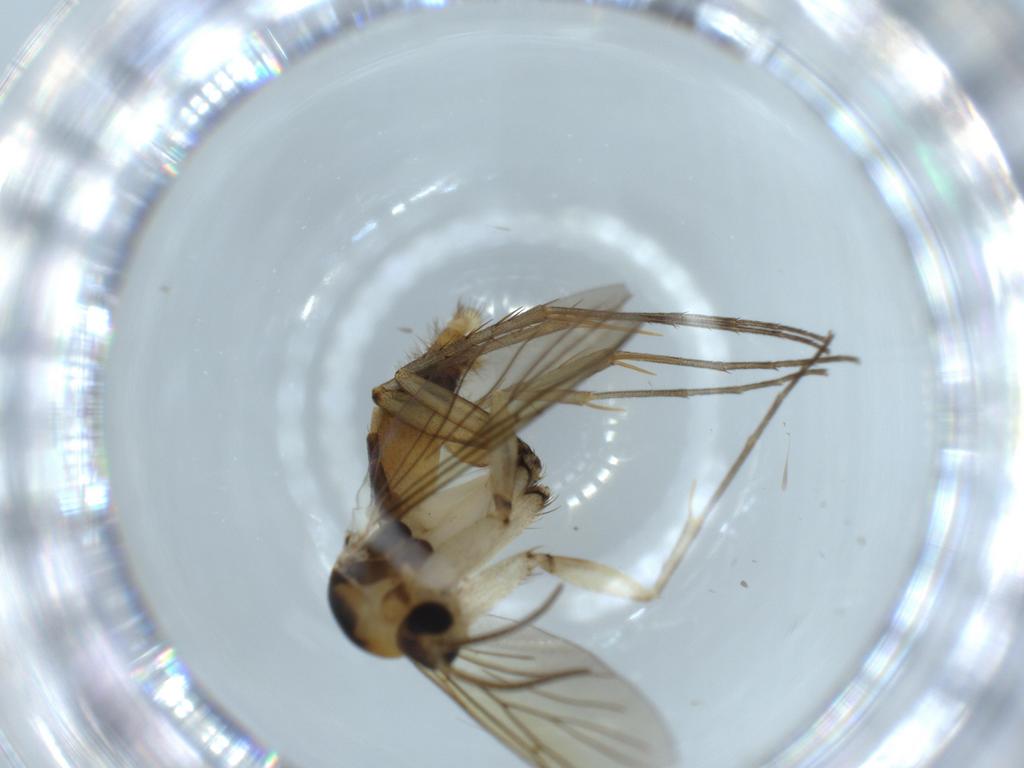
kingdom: Animalia
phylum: Arthropoda
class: Insecta
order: Diptera
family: Mycetophilidae
